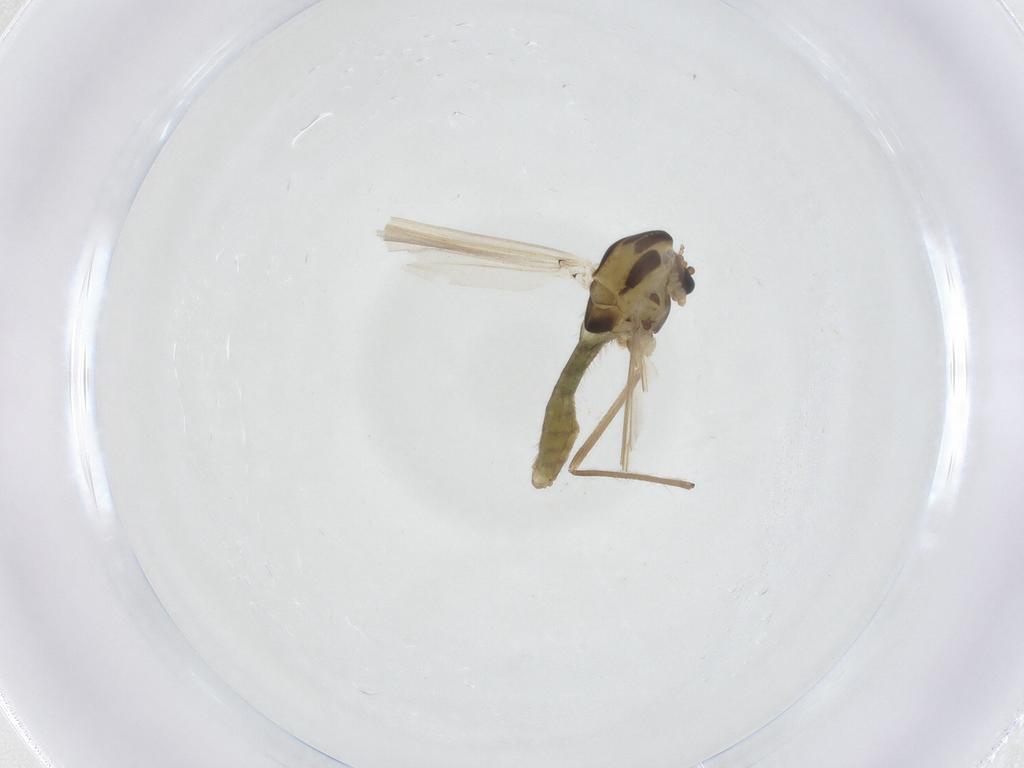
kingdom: Animalia
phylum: Arthropoda
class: Insecta
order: Diptera
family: Chironomidae
